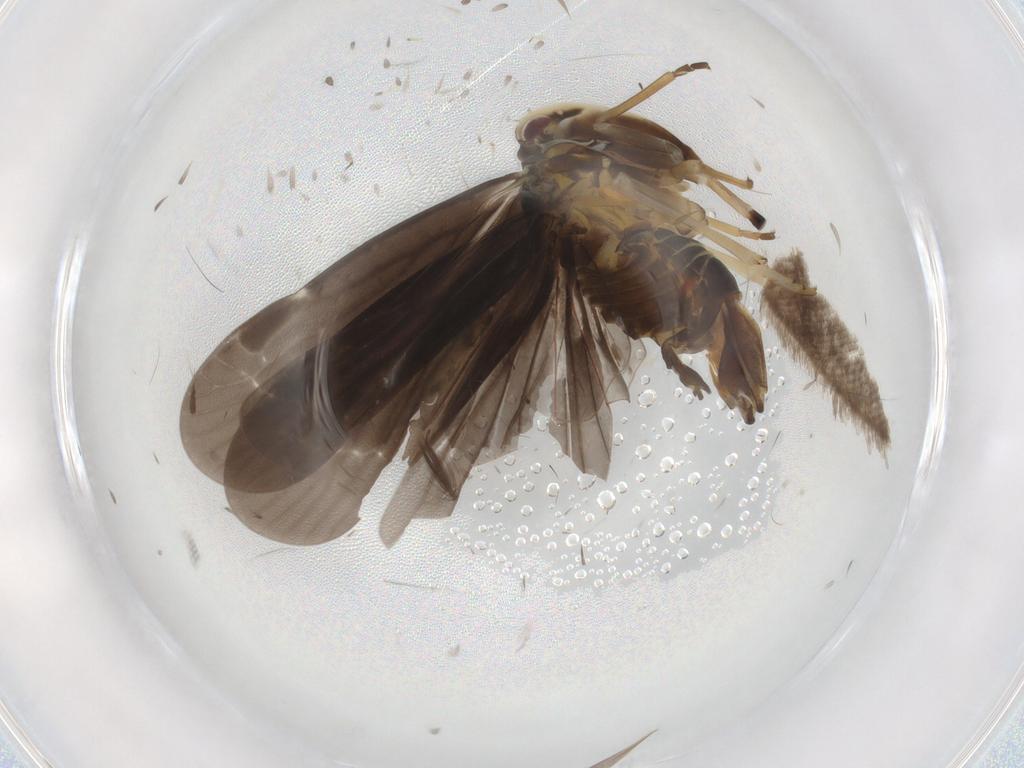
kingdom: Animalia
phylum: Arthropoda
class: Insecta
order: Hemiptera
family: Derbidae
